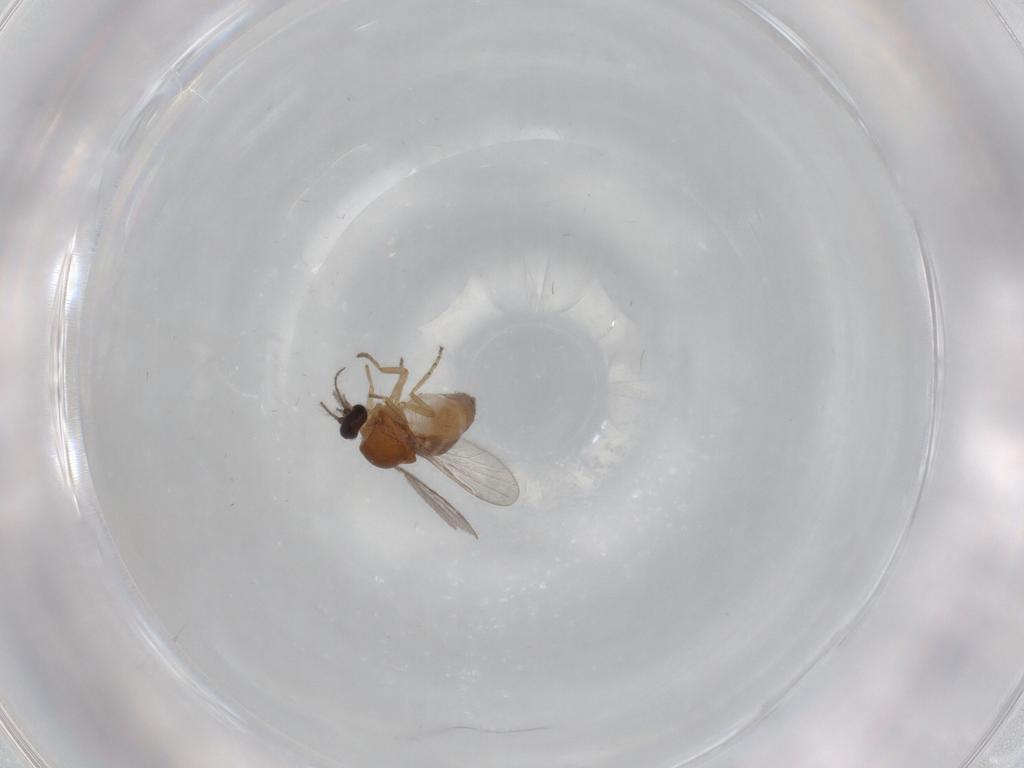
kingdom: Animalia
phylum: Arthropoda
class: Insecta
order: Diptera
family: Ceratopogonidae
